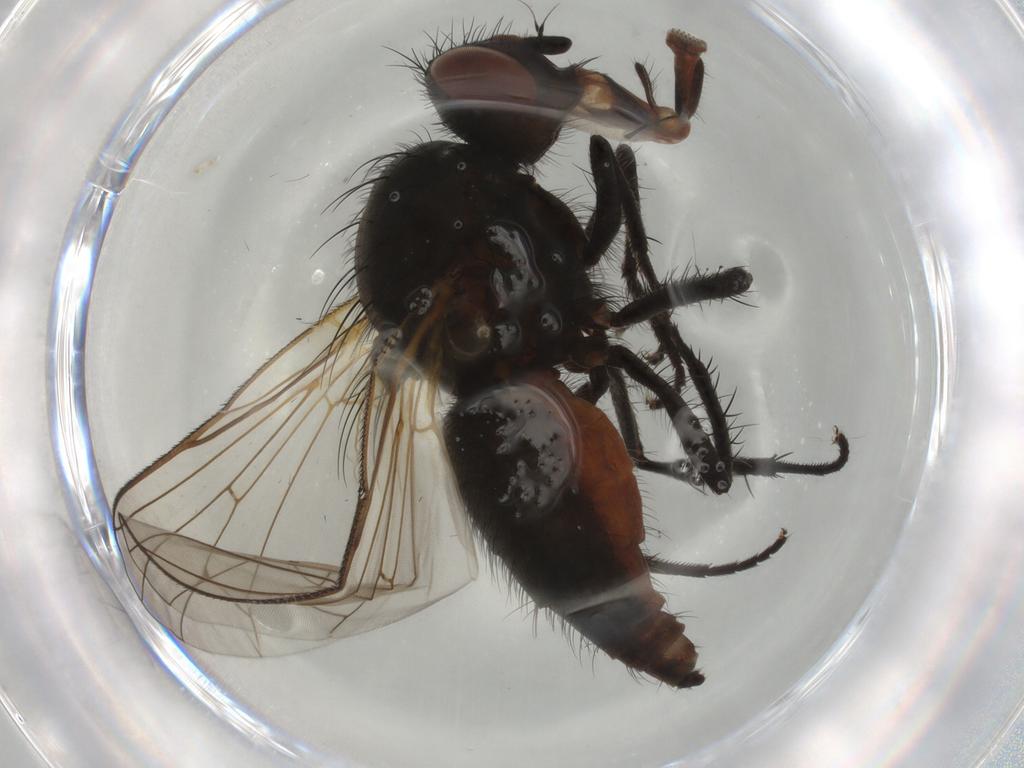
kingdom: Animalia
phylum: Arthropoda
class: Insecta
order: Diptera
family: Anthomyiidae
